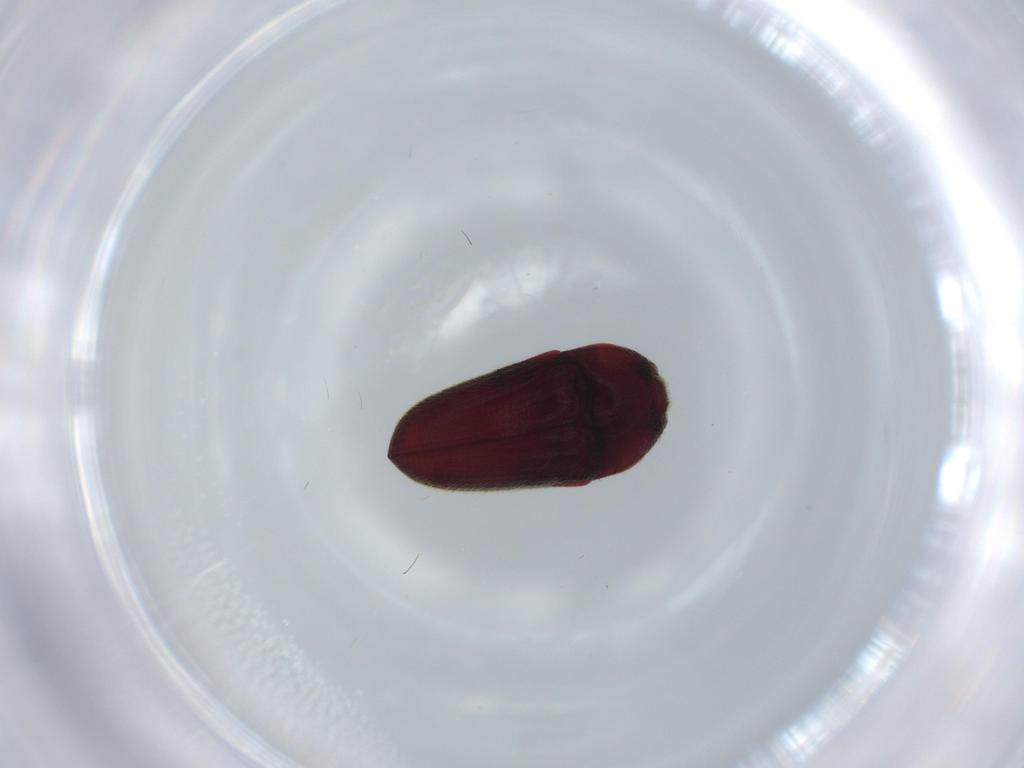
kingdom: Animalia
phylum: Arthropoda
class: Insecta
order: Coleoptera
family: Throscidae
